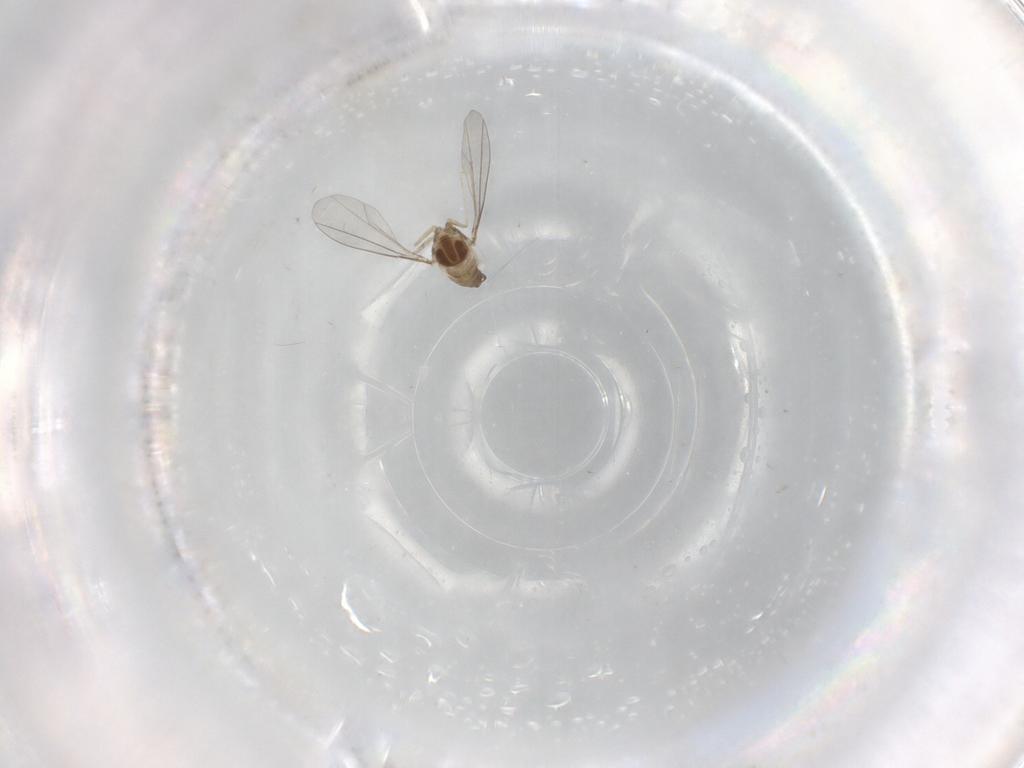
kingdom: Animalia
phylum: Arthropoda
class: Insecta
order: Diptera
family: Cecidomyiidae
